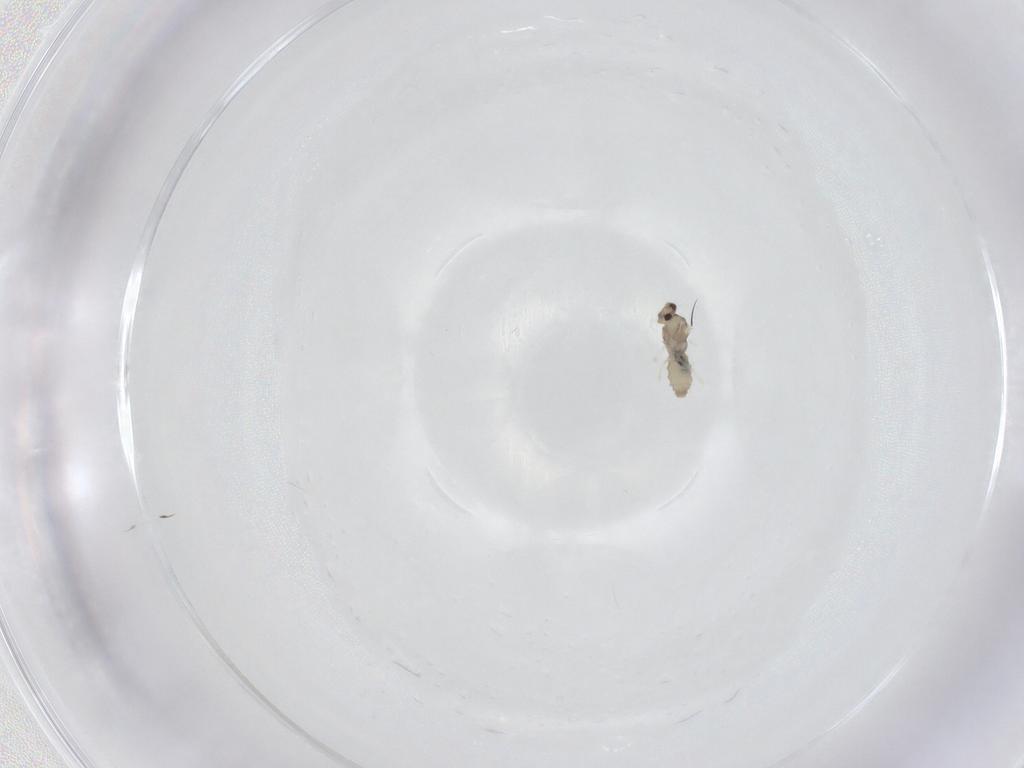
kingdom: Animalia
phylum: Arthropoda
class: Insecta
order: Diptera
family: Cecidomyiidae
